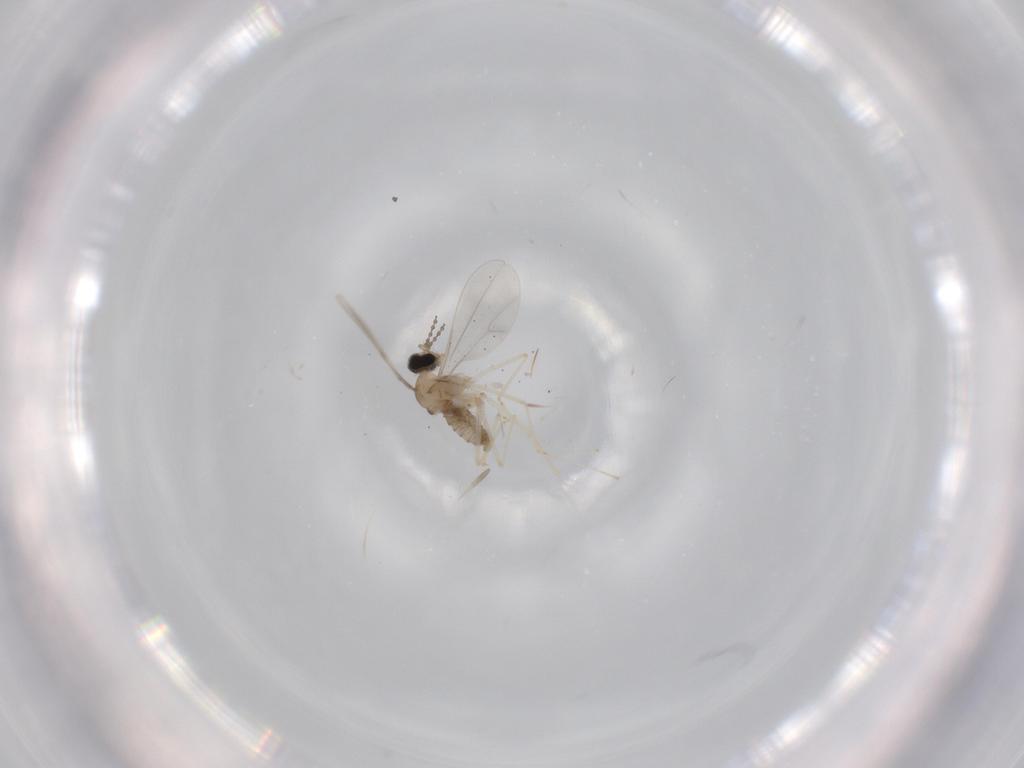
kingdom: Animalia
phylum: Arthropoda
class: Insecta
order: Diptera
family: Cecidomyiidae
